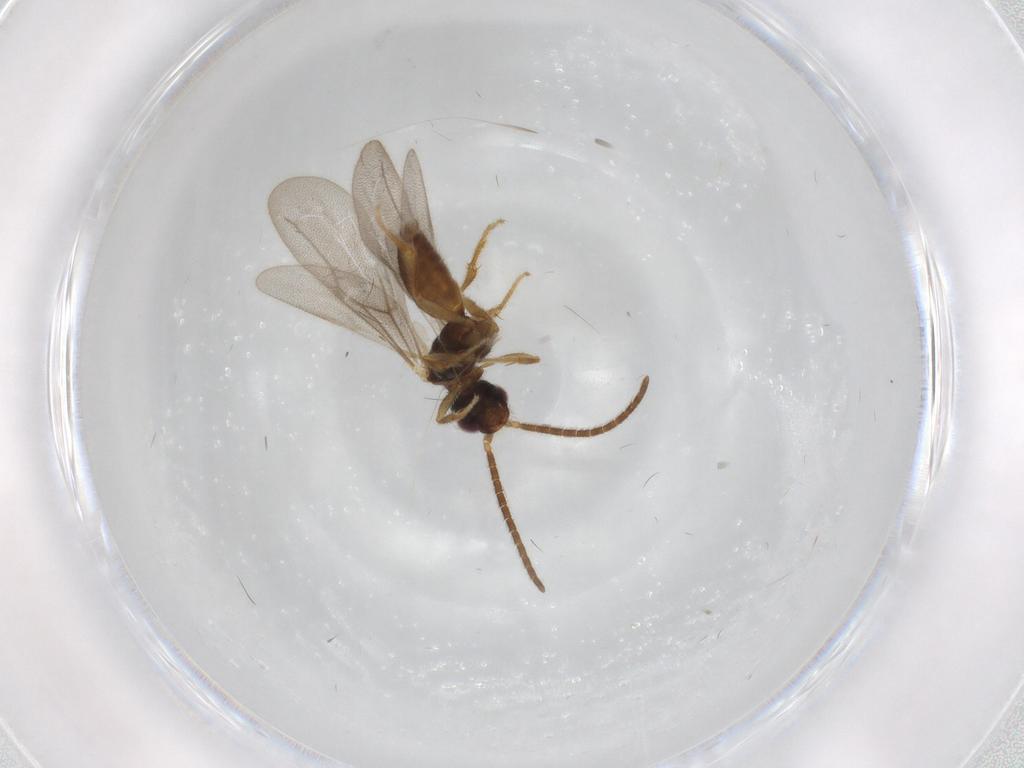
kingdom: Animalia
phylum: Arthropoda
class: Insecta
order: Hymenoptera
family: Bethylidae
